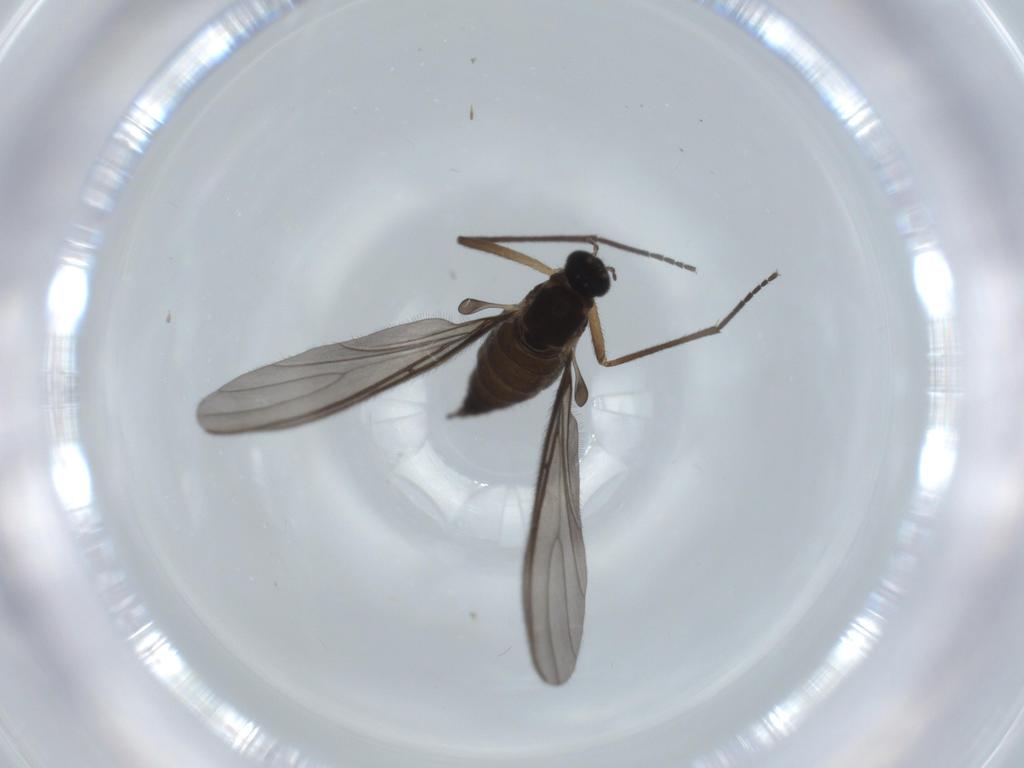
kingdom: Animalia
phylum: Arthropoda
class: Insecta
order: Diptera
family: Sciaridae
